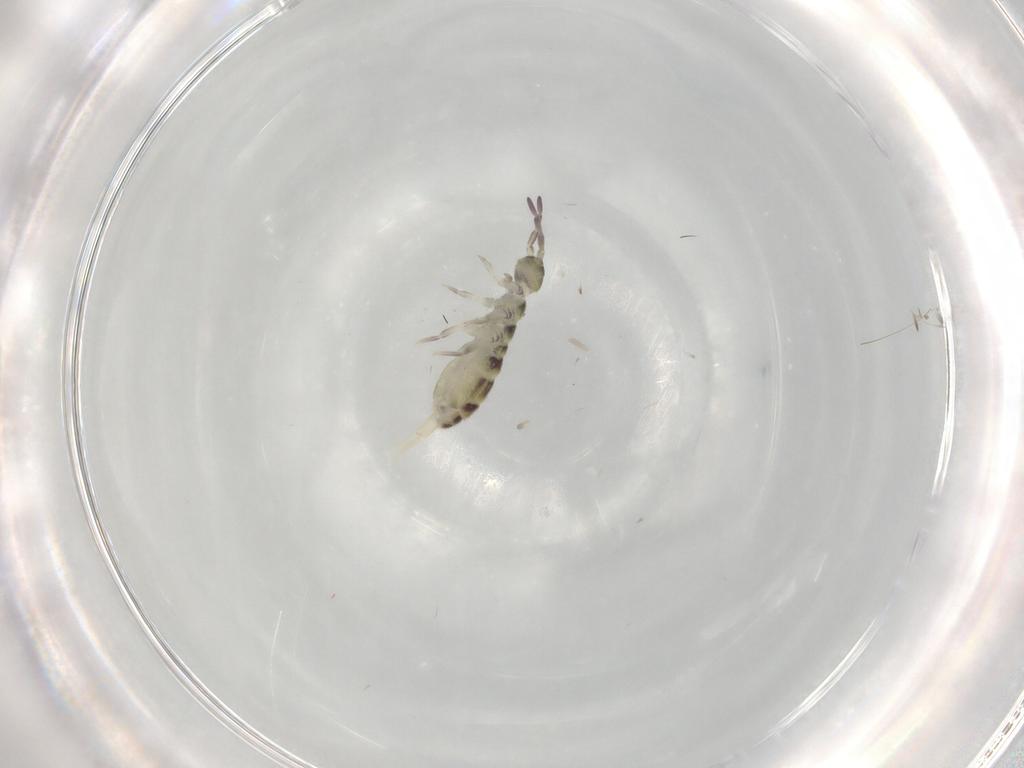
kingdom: Animalia
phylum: Arthropoda
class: Collembola
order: Entomobryomorpha
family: Isotomidae
